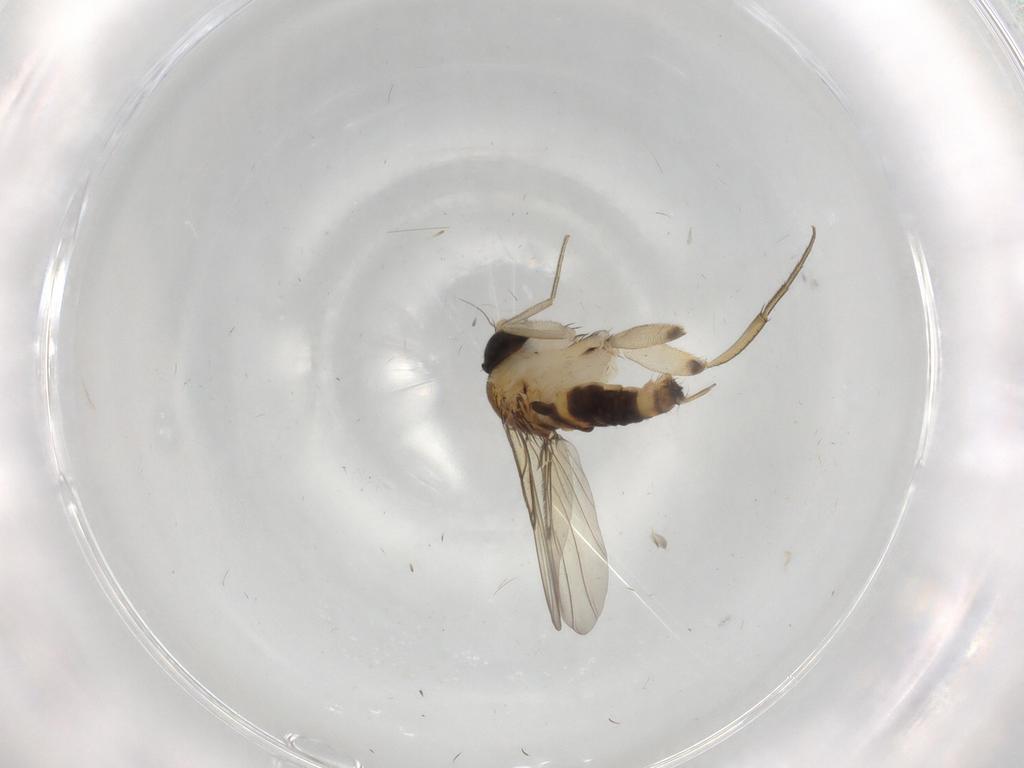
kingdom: Animalia
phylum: Arthropoda
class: Insecta
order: Diptera
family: Phoridae
